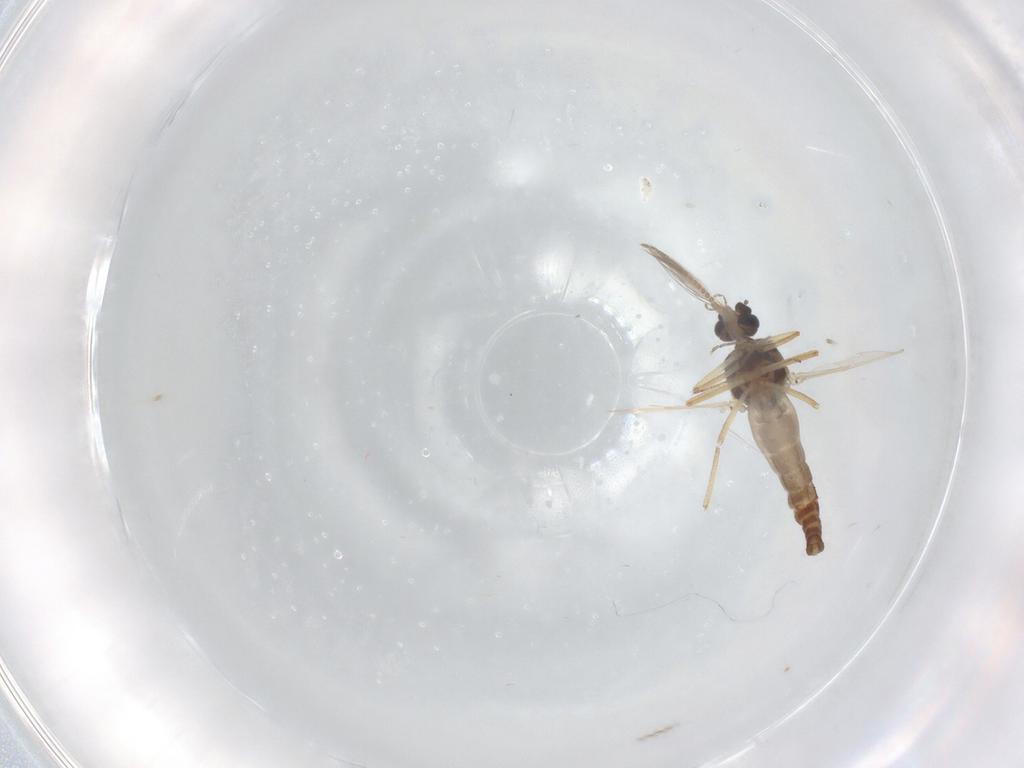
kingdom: Animalia
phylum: Arthropoda
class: Insecta
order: Diptera
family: Ceratopogonidae
